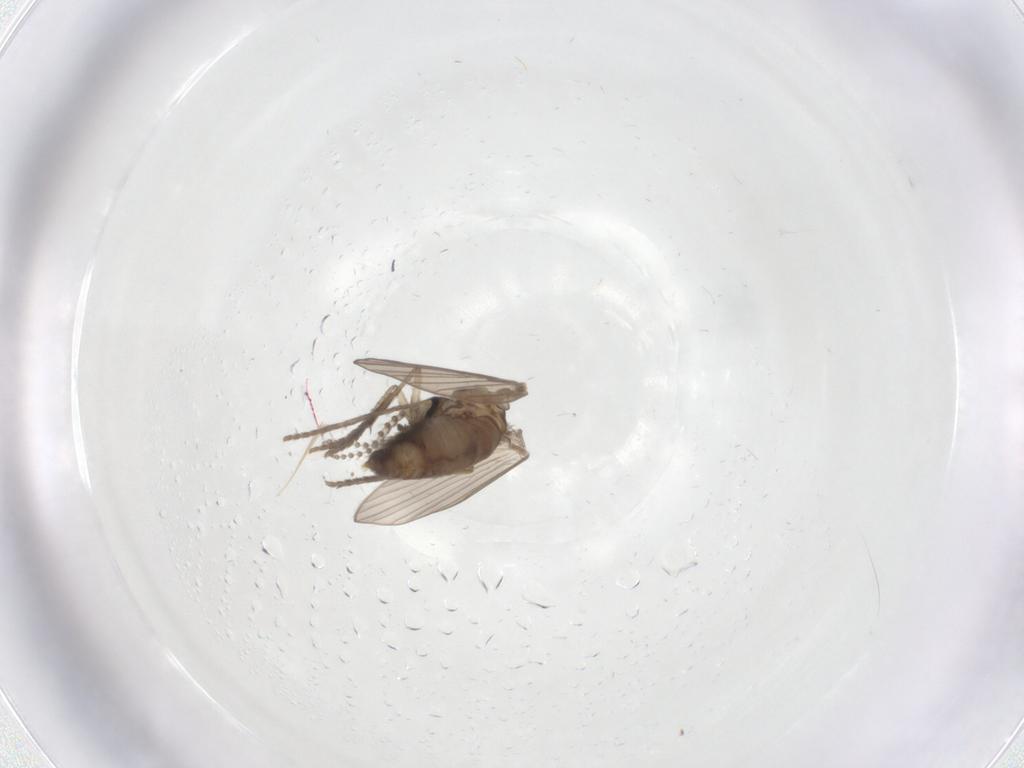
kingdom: Animalia
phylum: Arthropoda
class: Insecta
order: Diptera
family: Psychodidae
